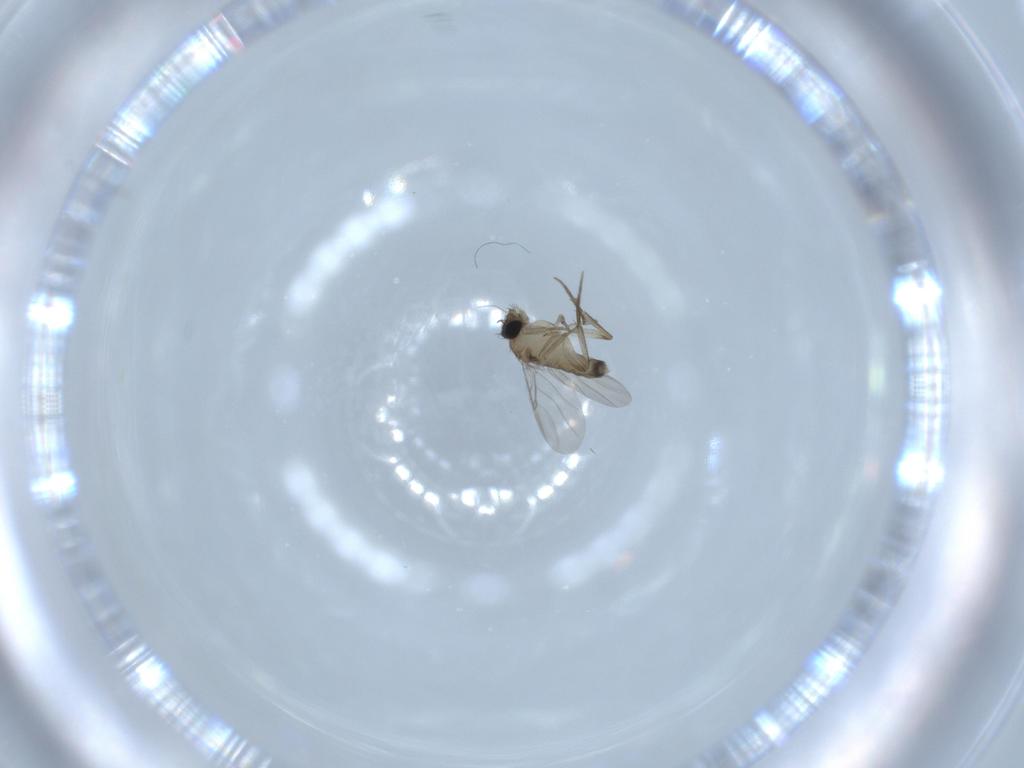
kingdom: Animalia
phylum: Arthropoda
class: Insecta
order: Diptera
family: Phoridae
